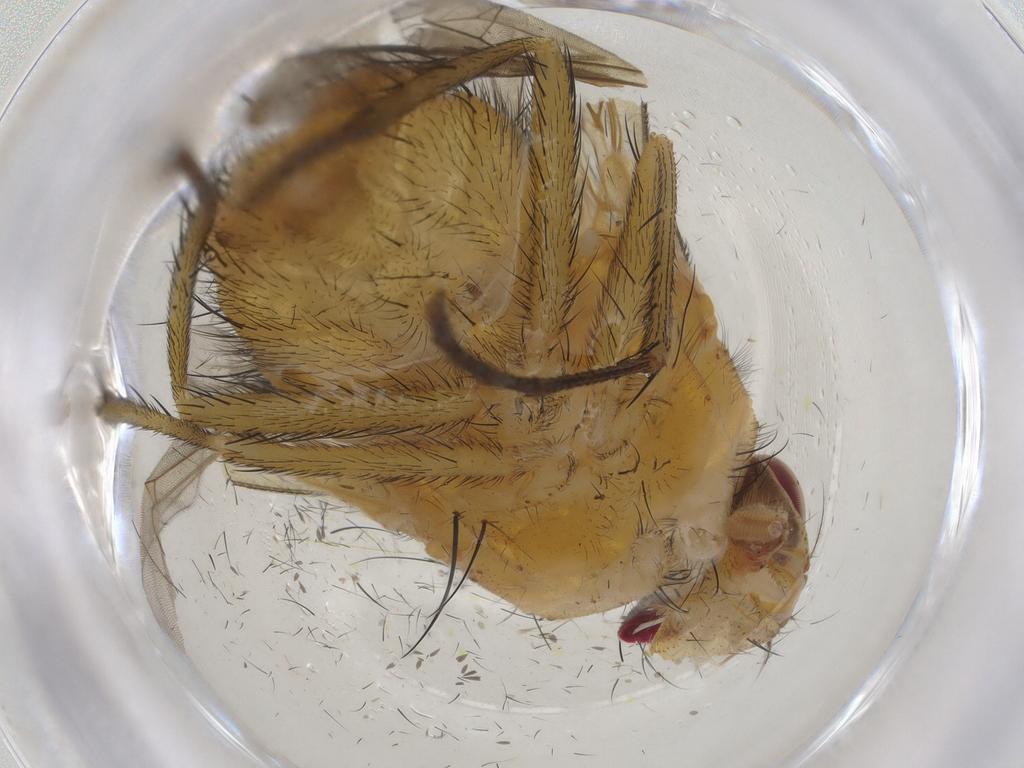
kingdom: Animalia
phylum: Arthropoda
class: Insecta
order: Diptera
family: Muscidae
